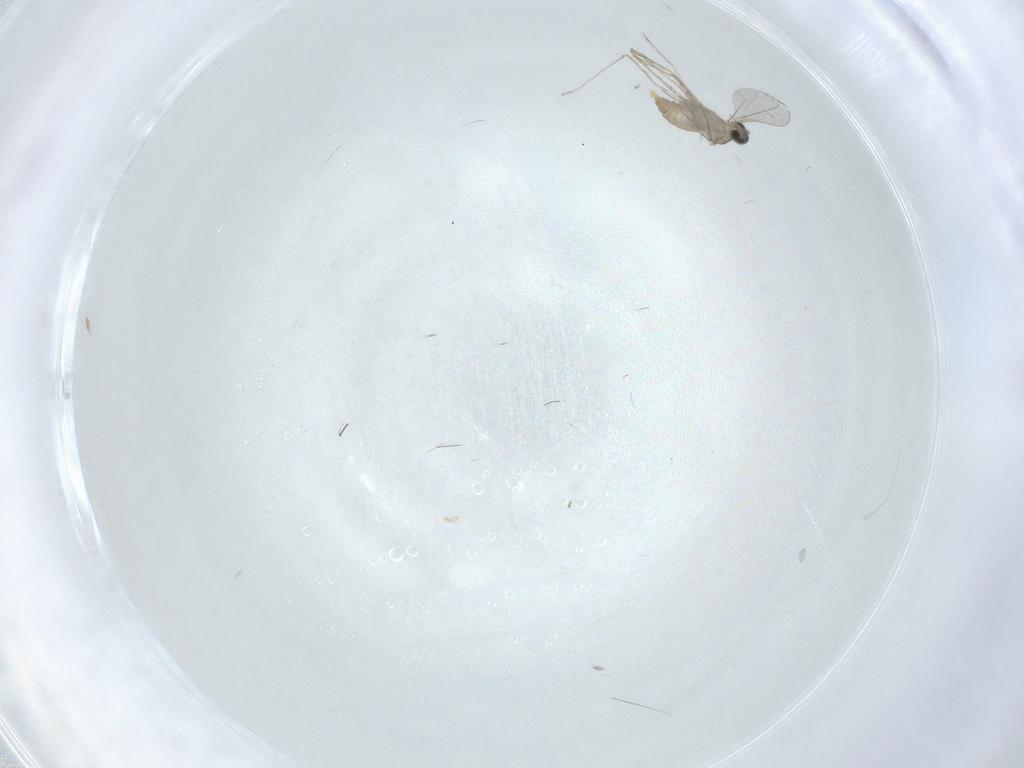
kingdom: Animalia
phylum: Arthropoda
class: Insecta
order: Diptera
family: Cecidomyiidae
